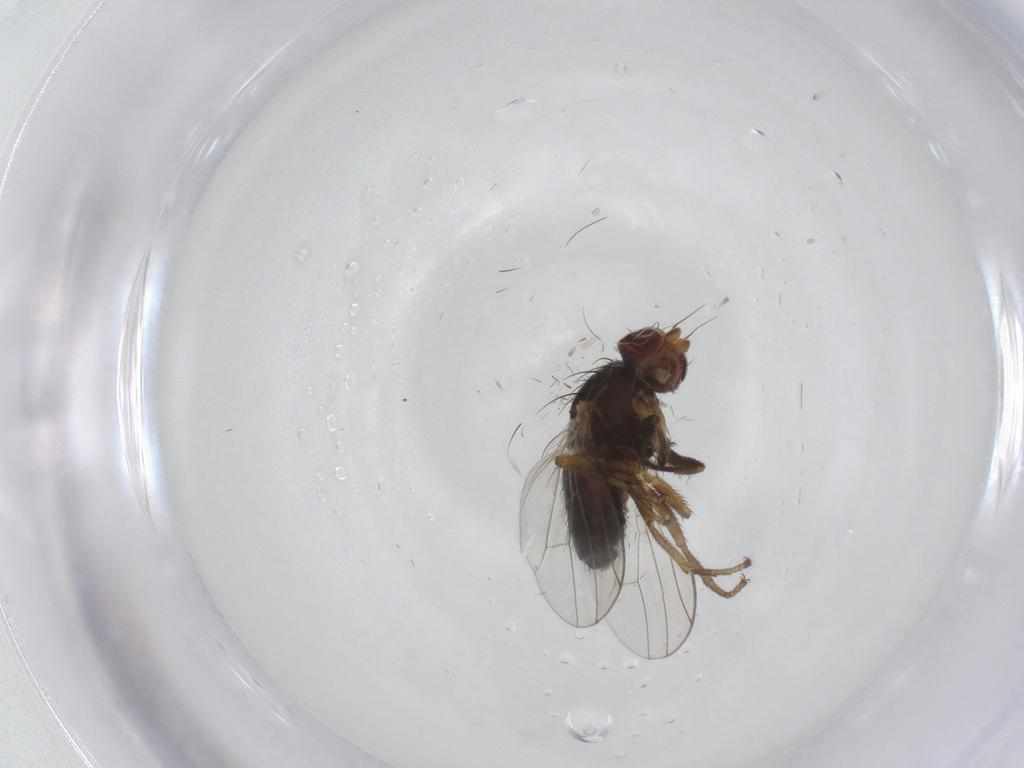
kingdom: Animalia
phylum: Arthropoda
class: Insecta
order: Diptera
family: Heleomyzidae
